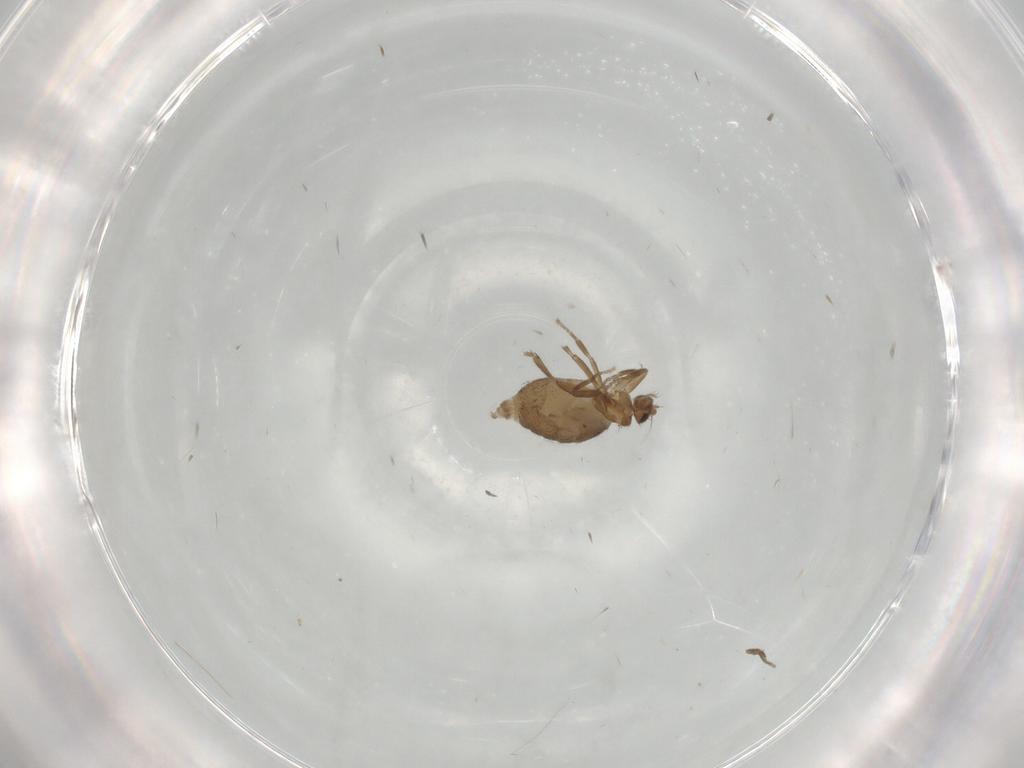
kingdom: Animalia
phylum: Arthropoda
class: Insecta
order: Diptera
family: Phoridae
